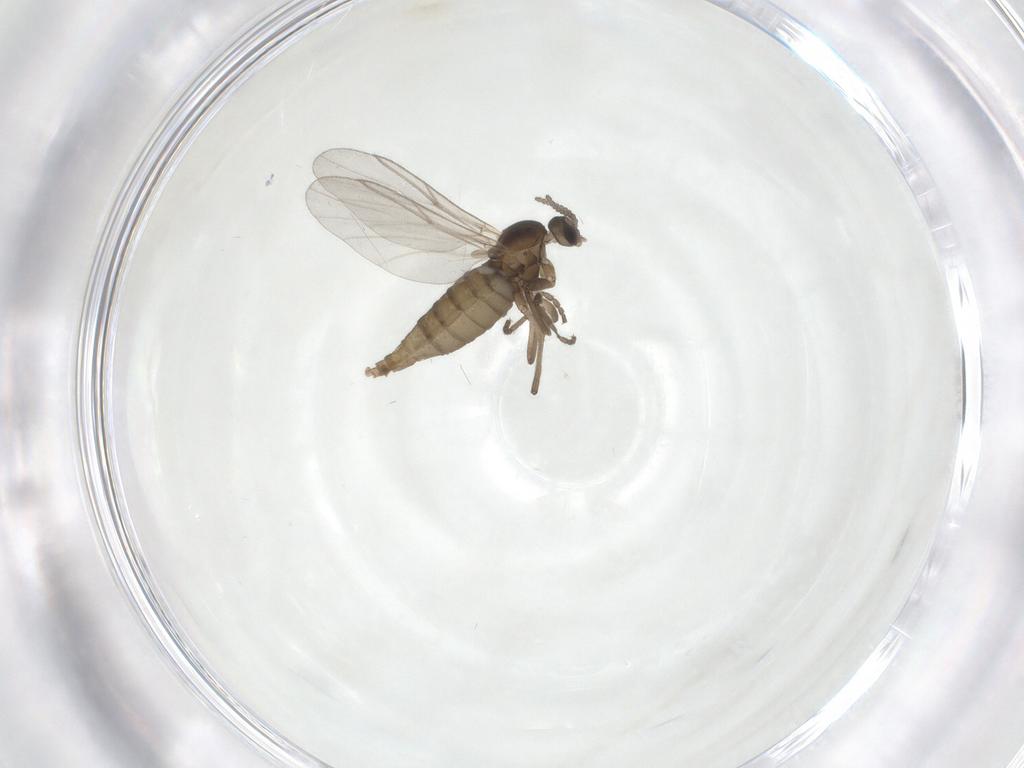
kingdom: Animalia
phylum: Arthropoda
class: Insecta
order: Diptera
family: Cecidomyiidae
